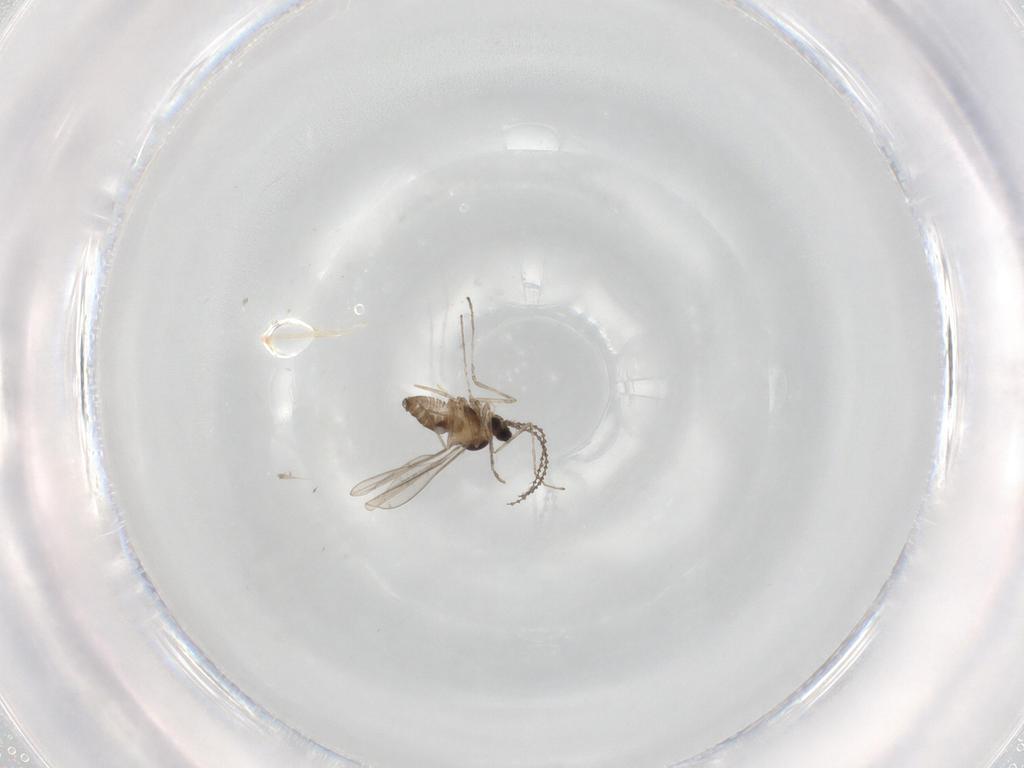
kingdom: Animalia
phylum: Arthropoda
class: Insecta
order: Diptera
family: Cecidomyiidae
